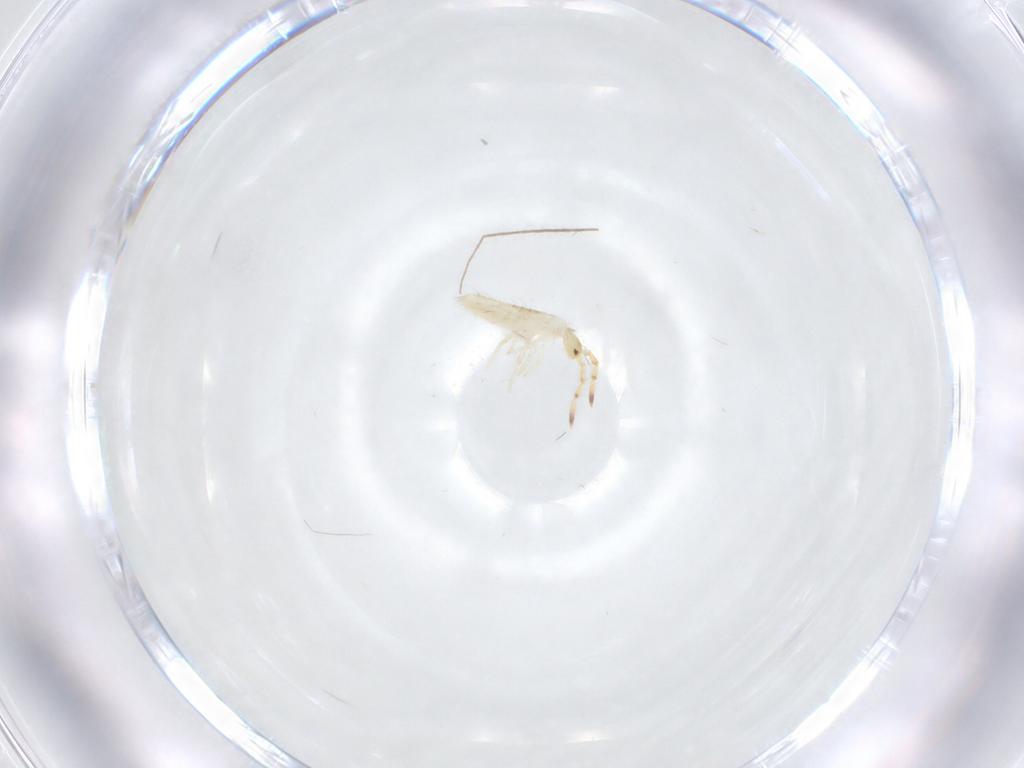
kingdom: Animalia
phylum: Arthropoda
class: Collembola
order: Entomobryomorpha
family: Entomobryidae
